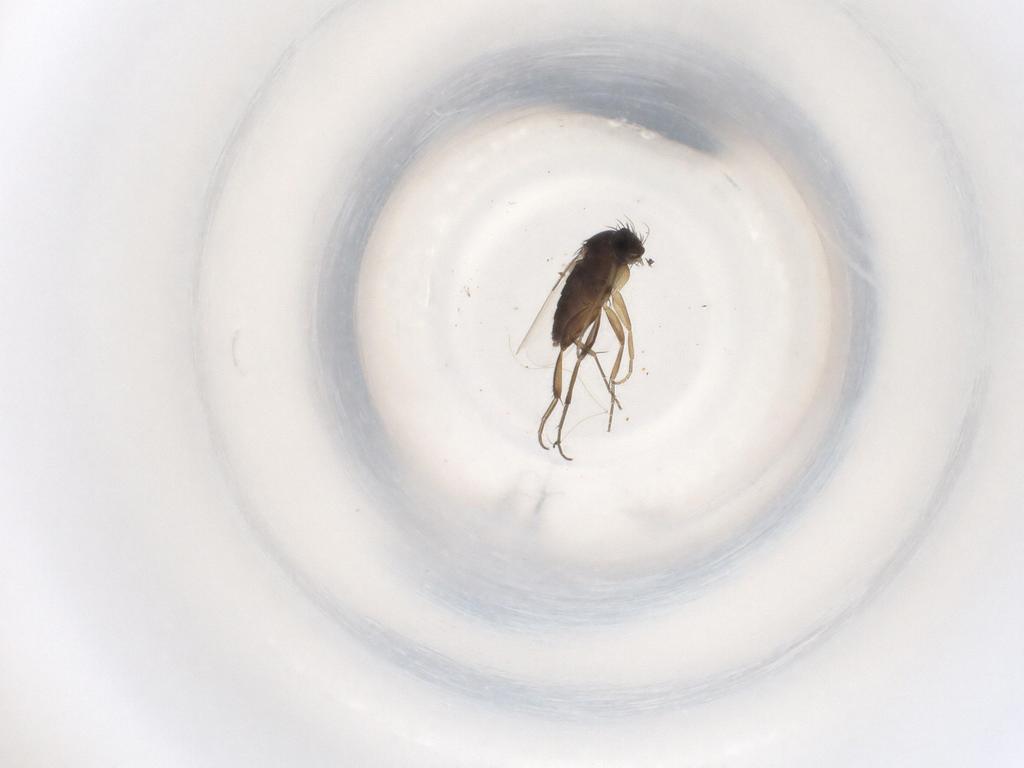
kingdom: Animalia
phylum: Arthropoda
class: Insecta
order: Diptera
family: Phoridae
